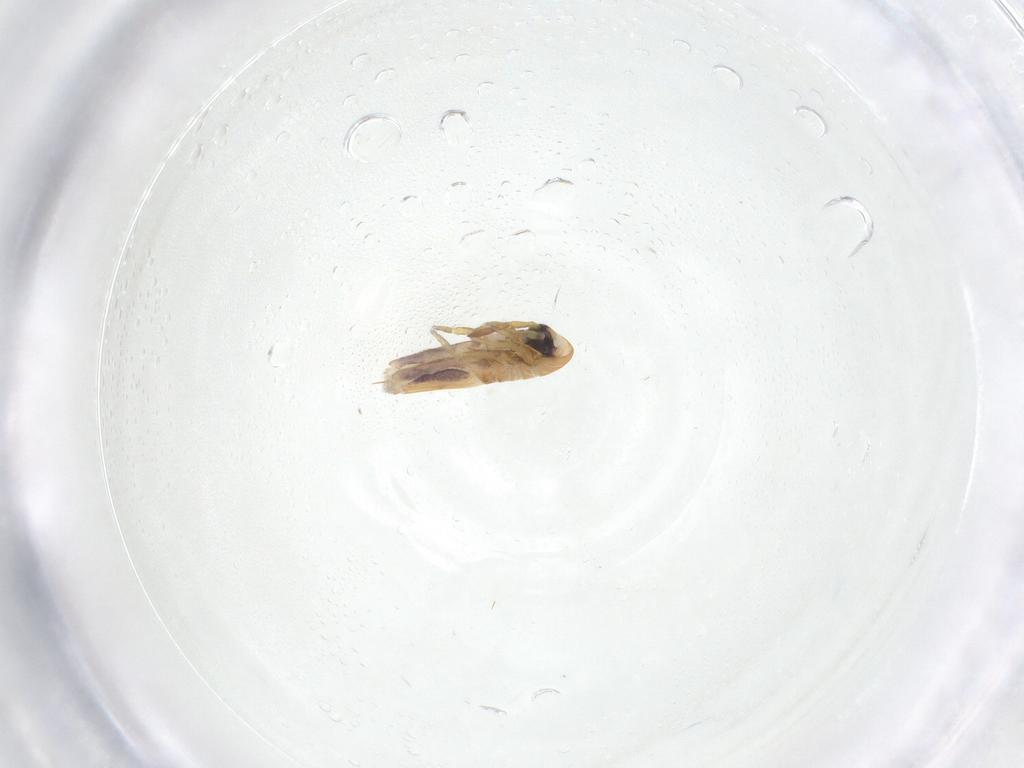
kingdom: Animalia
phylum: Arthropoda
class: Collembola
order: Entomobryomorpha
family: Entomobryidae
